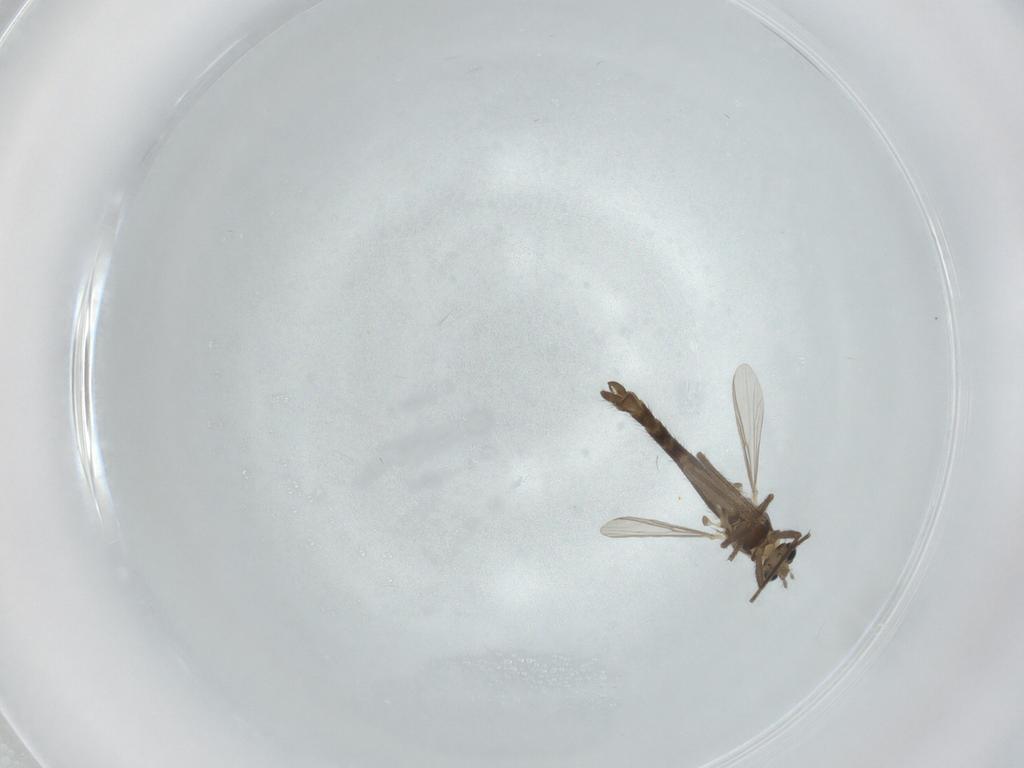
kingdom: Animalia
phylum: Arthropoda
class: Insecta
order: Diptera
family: Chironomidae
